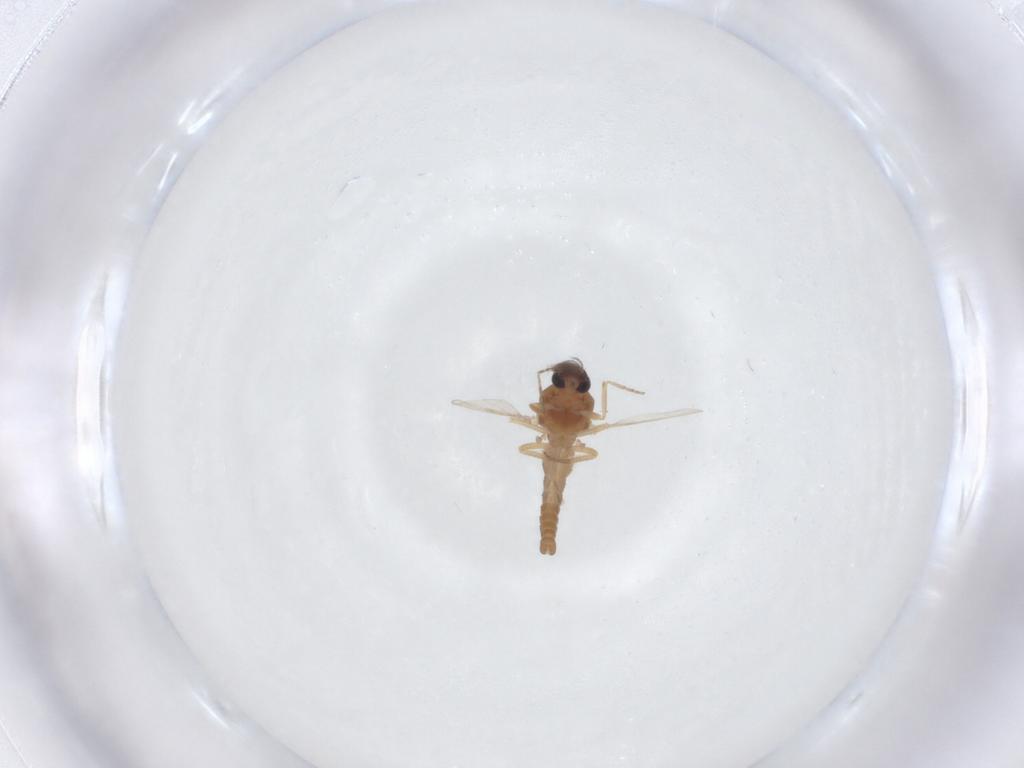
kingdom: Animalia
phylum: Arthropoda
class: Insecta
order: Diptera
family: Ceratopogonidae
